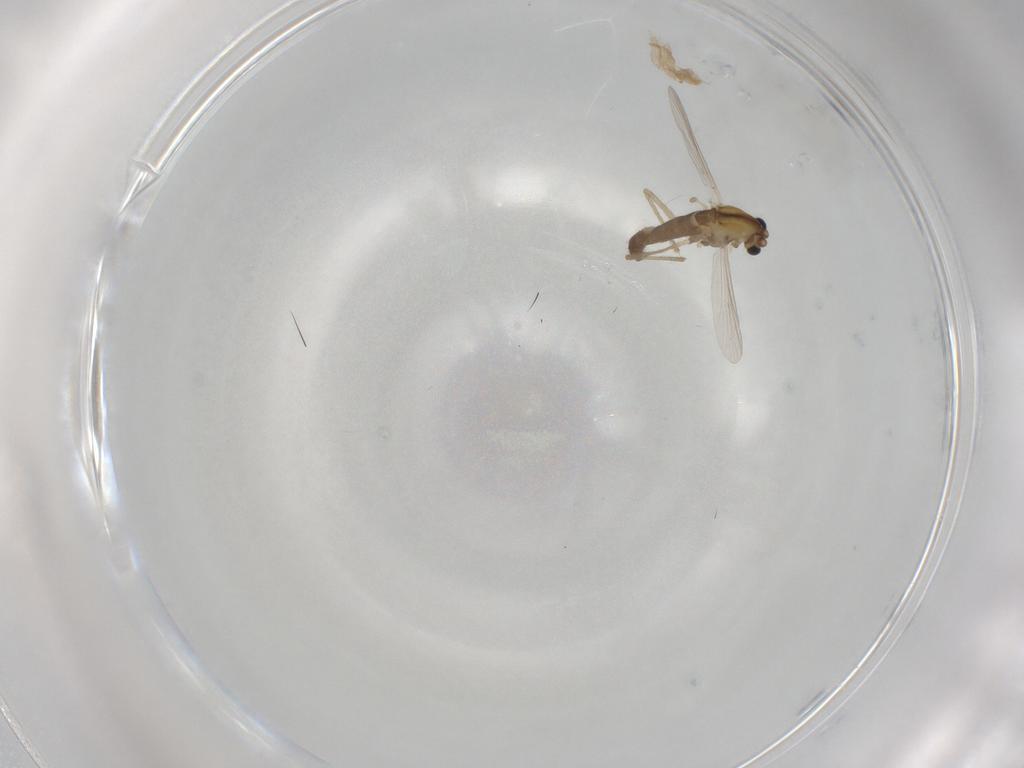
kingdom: Animalia
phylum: Arthropoda
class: Insecta
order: Diptera
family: Chironomidae
